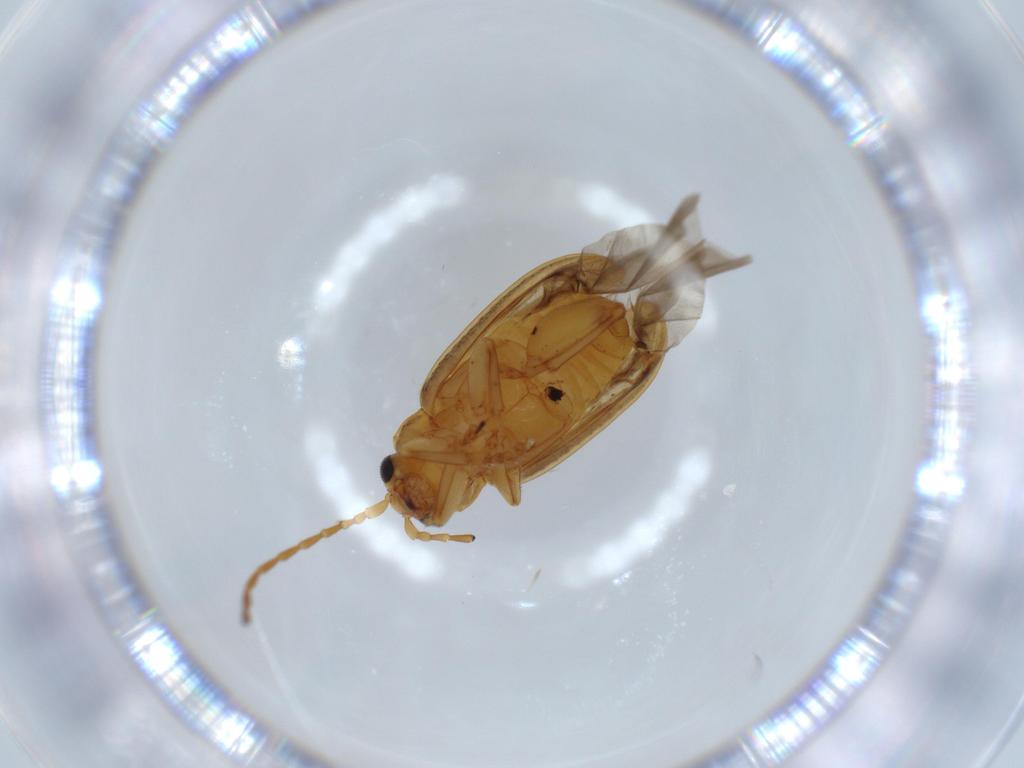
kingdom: Animalia
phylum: Arthropoda
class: Insecta
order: Coleoptera
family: Chrysomelidae
